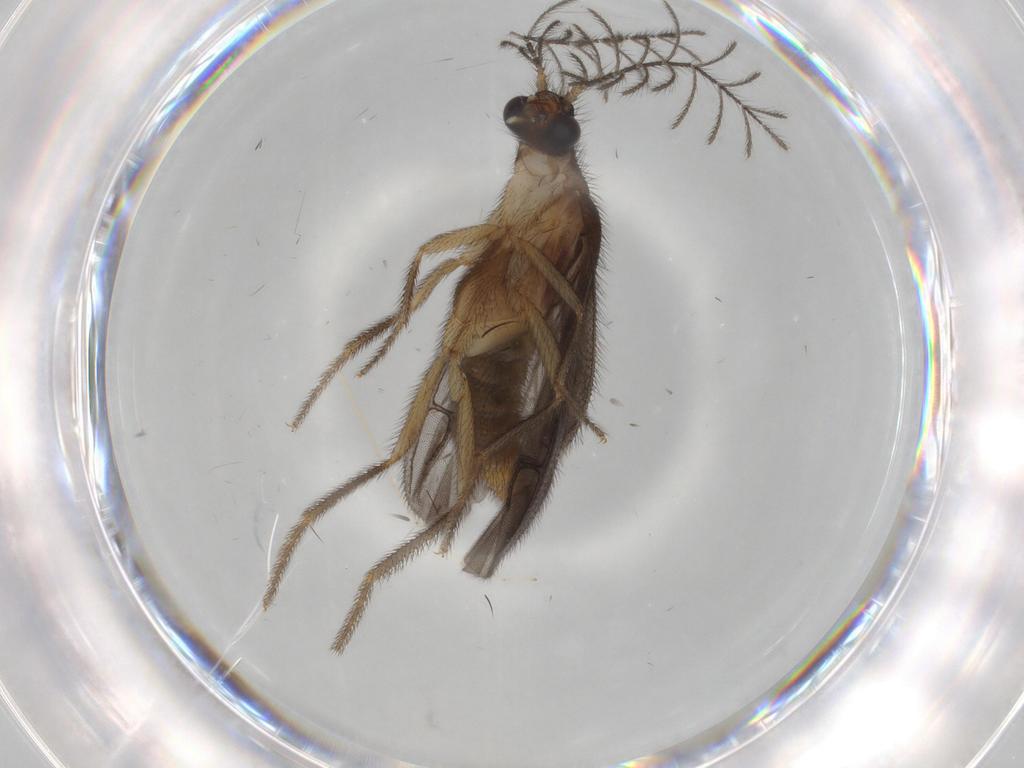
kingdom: Animalia
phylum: Arthropoda
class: Insecta
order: Coleoptera
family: Phengodidae
